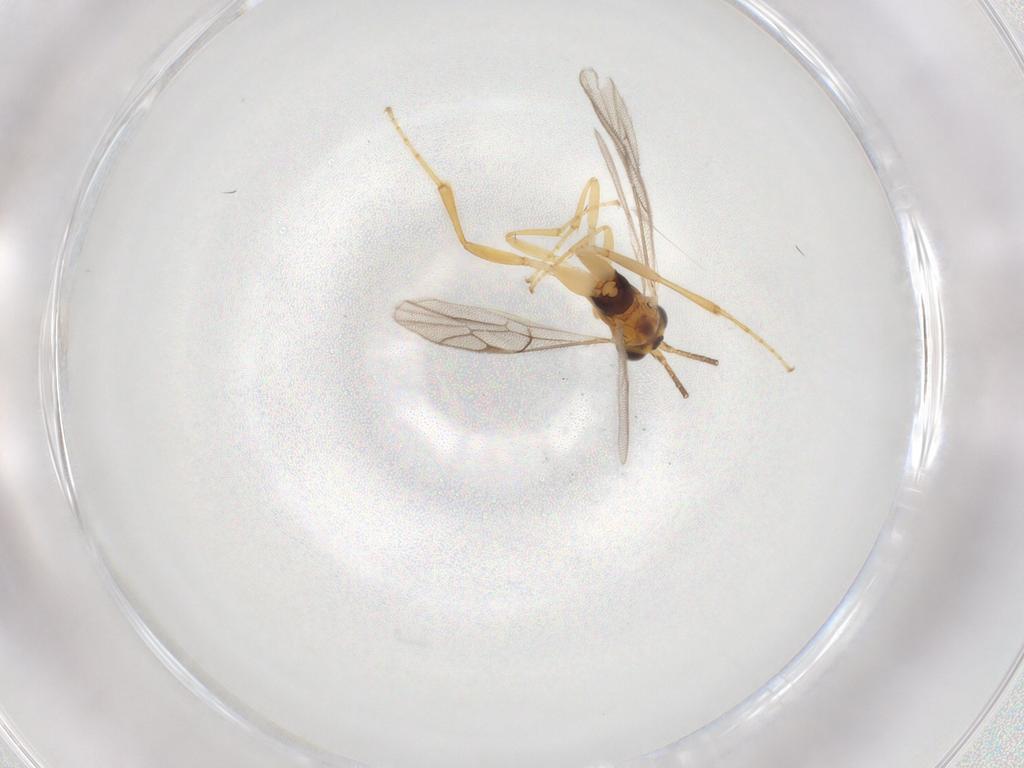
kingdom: Animalia
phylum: Arthropoda
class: Insecta
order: Hymenoptera
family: Ichneumonidae
